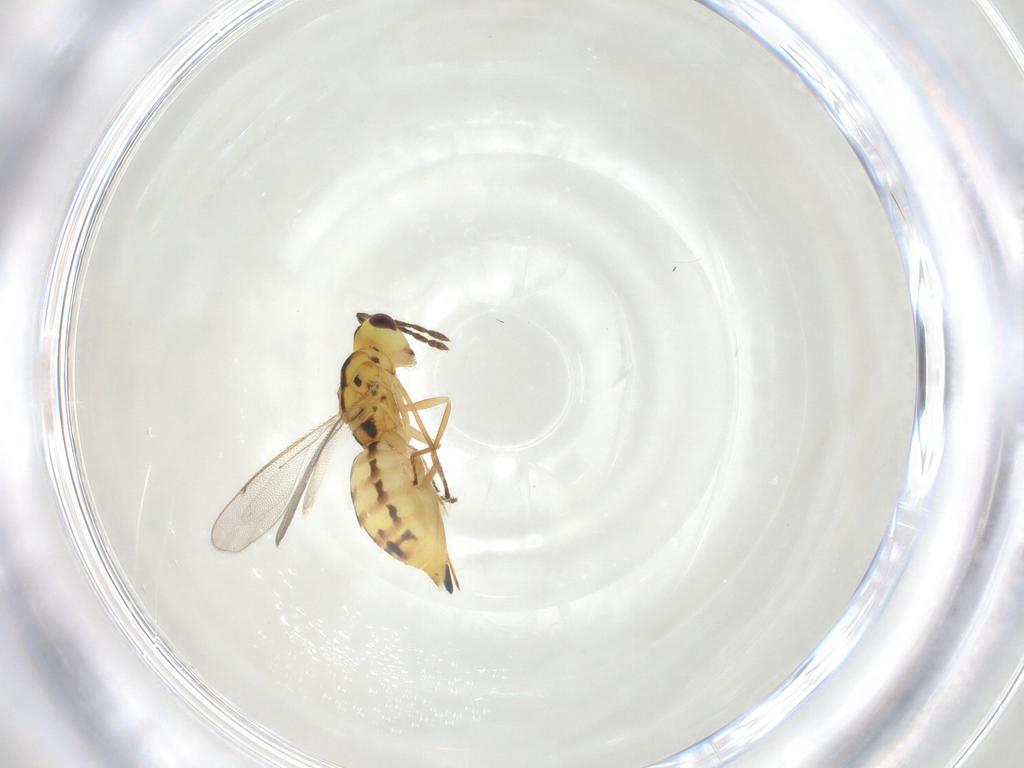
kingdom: Animalia
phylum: Arthropoda
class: Insecta
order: Hymenoptera
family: Eulophidae
